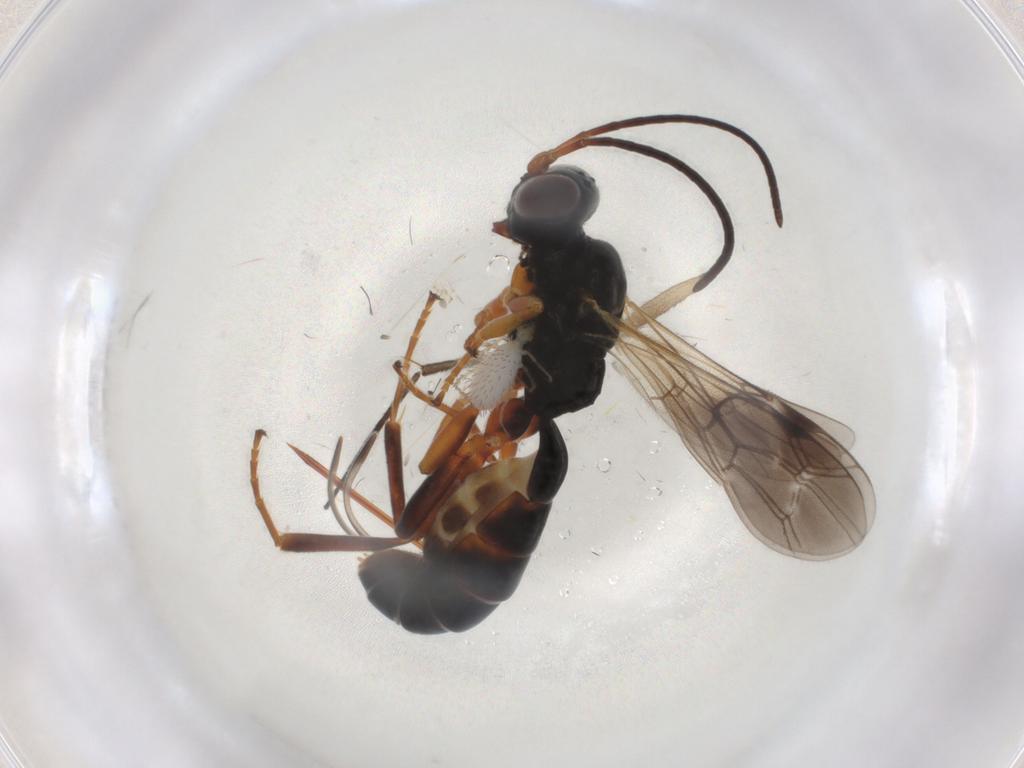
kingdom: Animalia
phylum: Arthropoda
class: Insecta
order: Hymenoptera
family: Ichneumonidae
